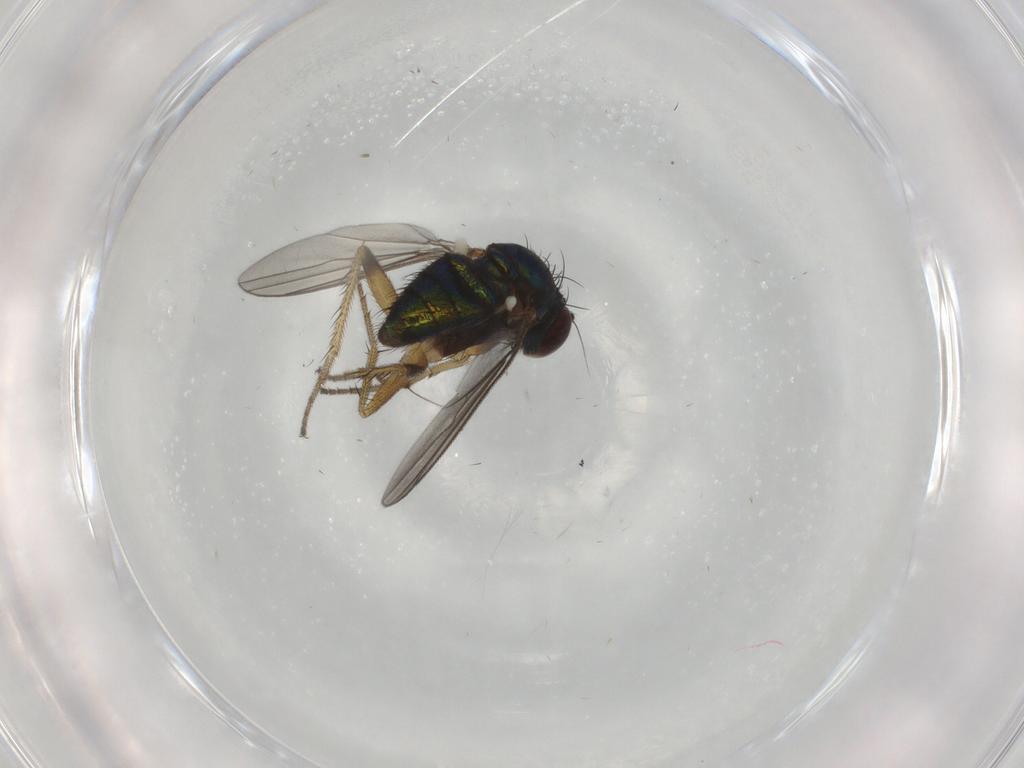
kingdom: Animalia
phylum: Arthropoda
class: Insecta
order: Diptera
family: Dolichopodidae
